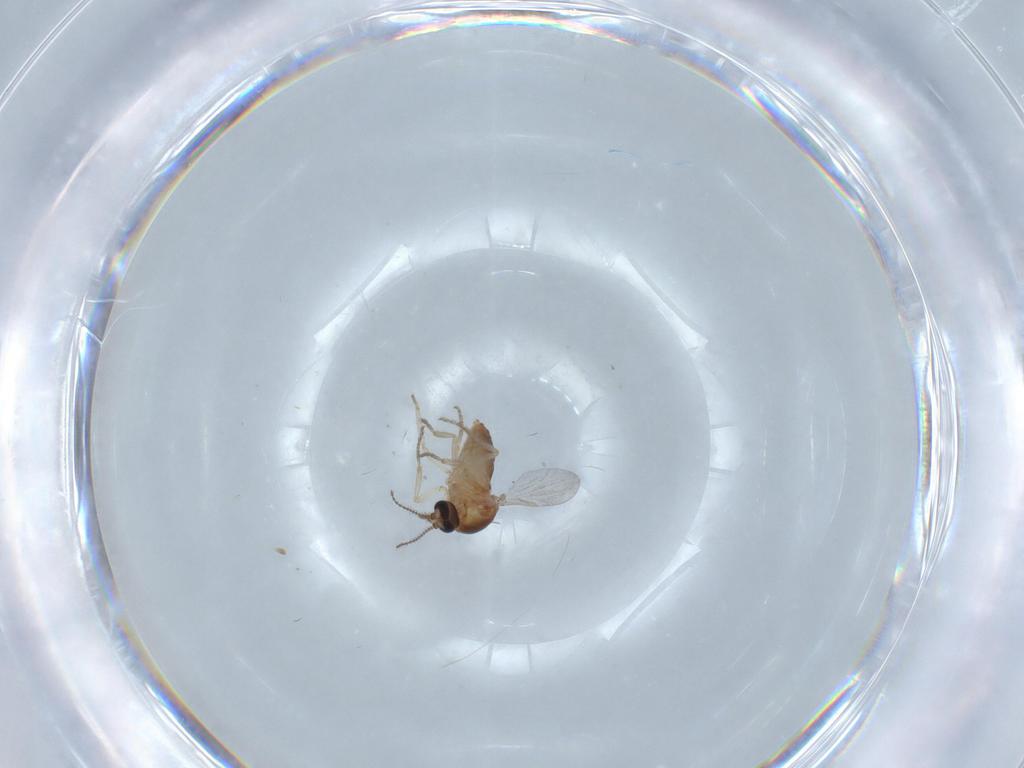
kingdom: Animalia
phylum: Arthropoda
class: Insecta
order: Diptera
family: Ceratopogonidae
